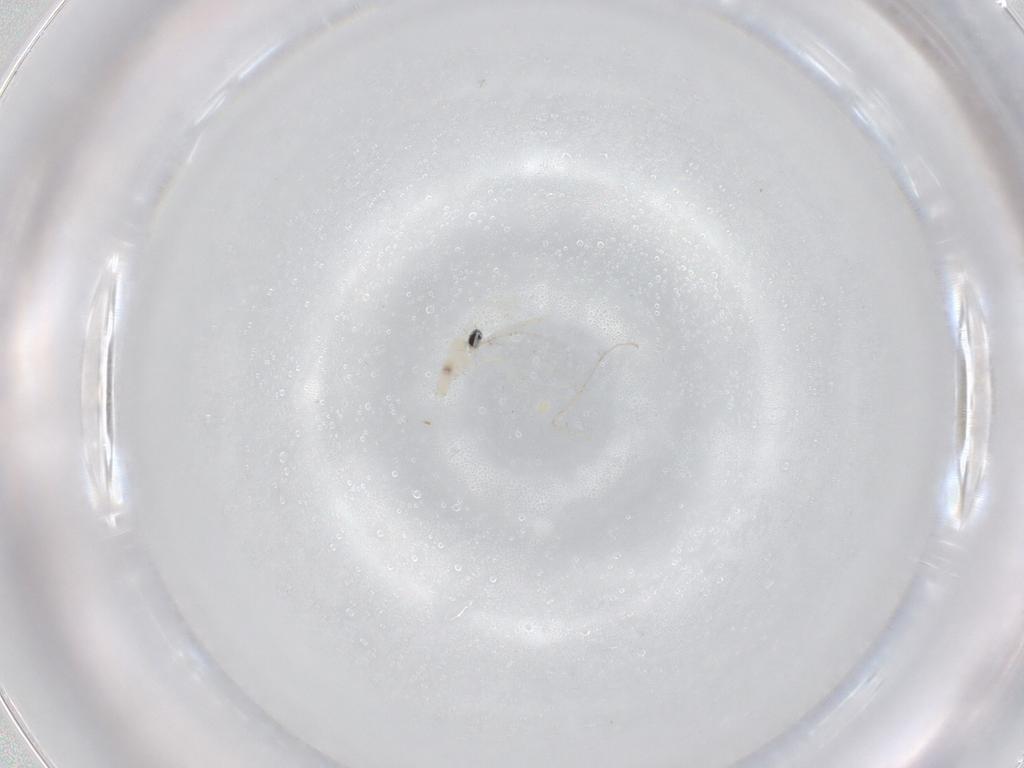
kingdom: Animalia
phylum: Arthropoda
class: Insecta
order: Diptera
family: Cecidomyiidae
